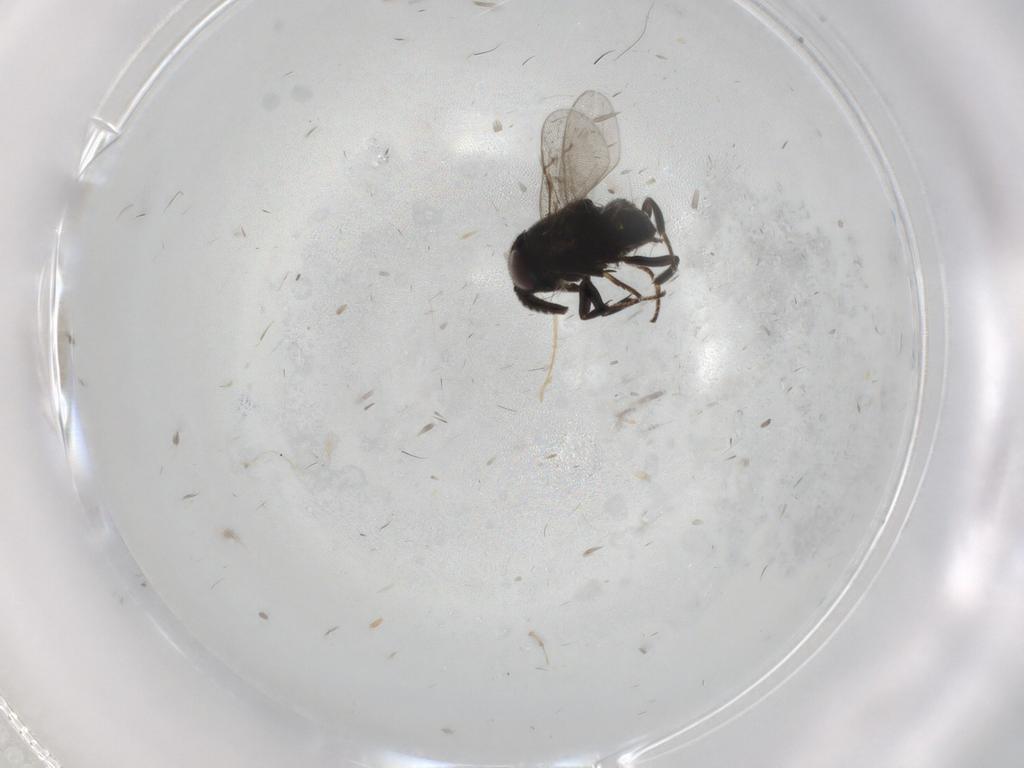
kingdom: Animalia
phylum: Arthropoda
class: Insecta
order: Hymenoptera
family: Encyrtidae
